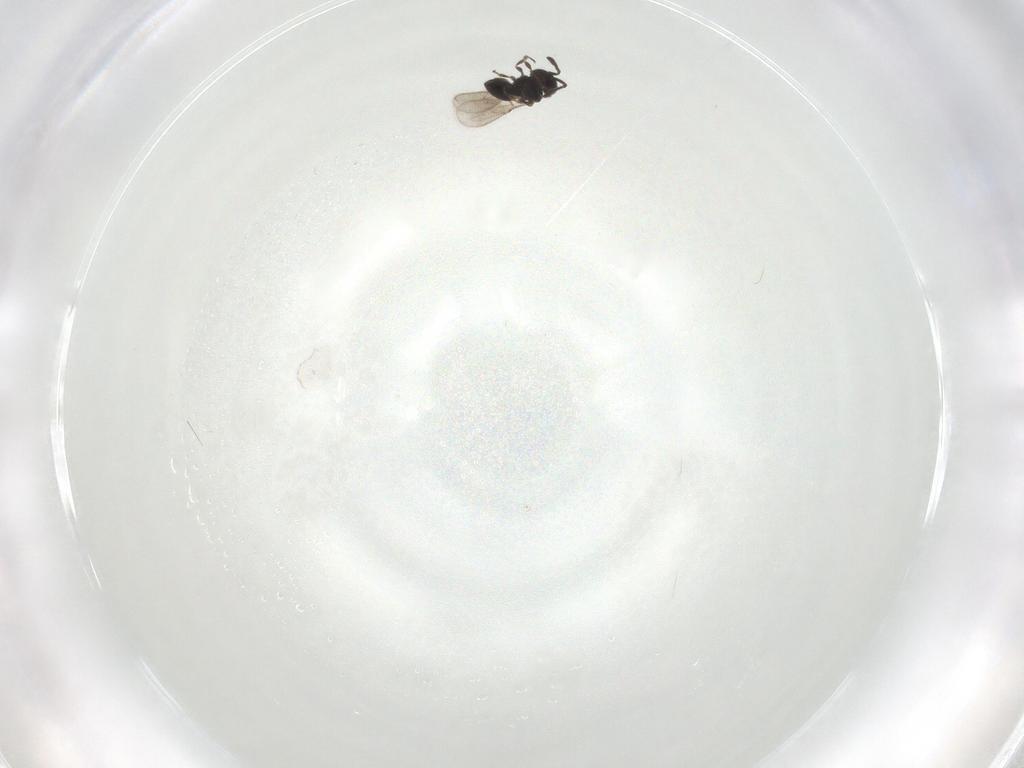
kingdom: Animalia
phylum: Arthropoda
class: Insecta
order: Hymenoptera
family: Scelionidae
